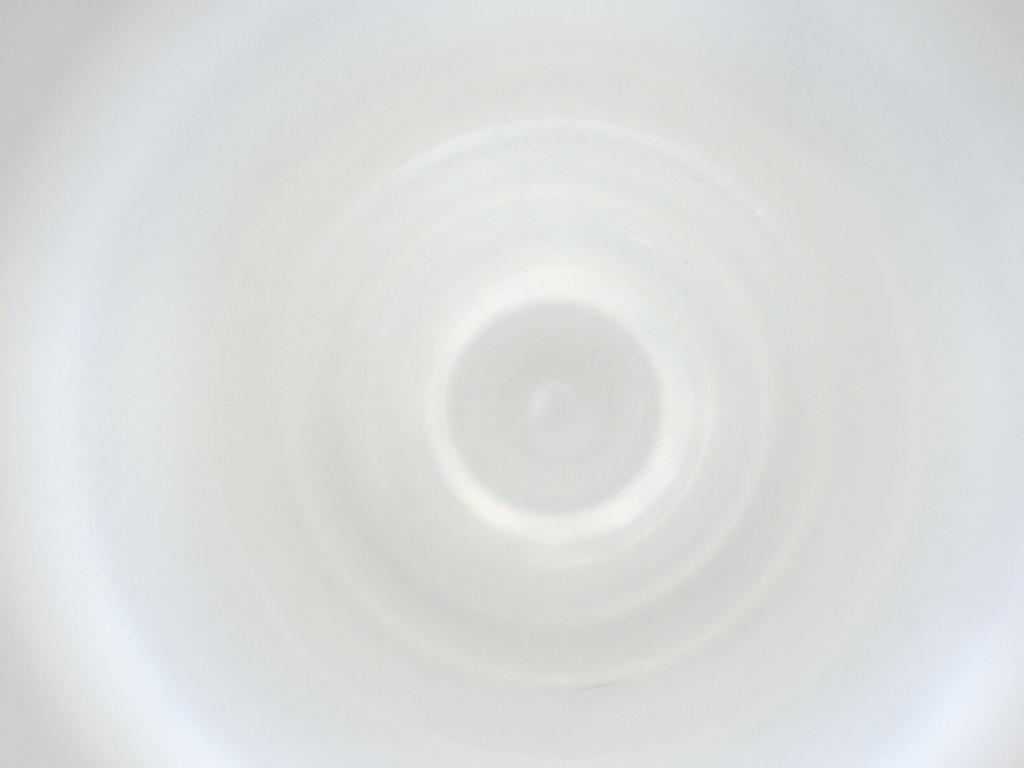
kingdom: Animalia
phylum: Arthropoda
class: Insecta
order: Diptera
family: Cecidomyiidae
